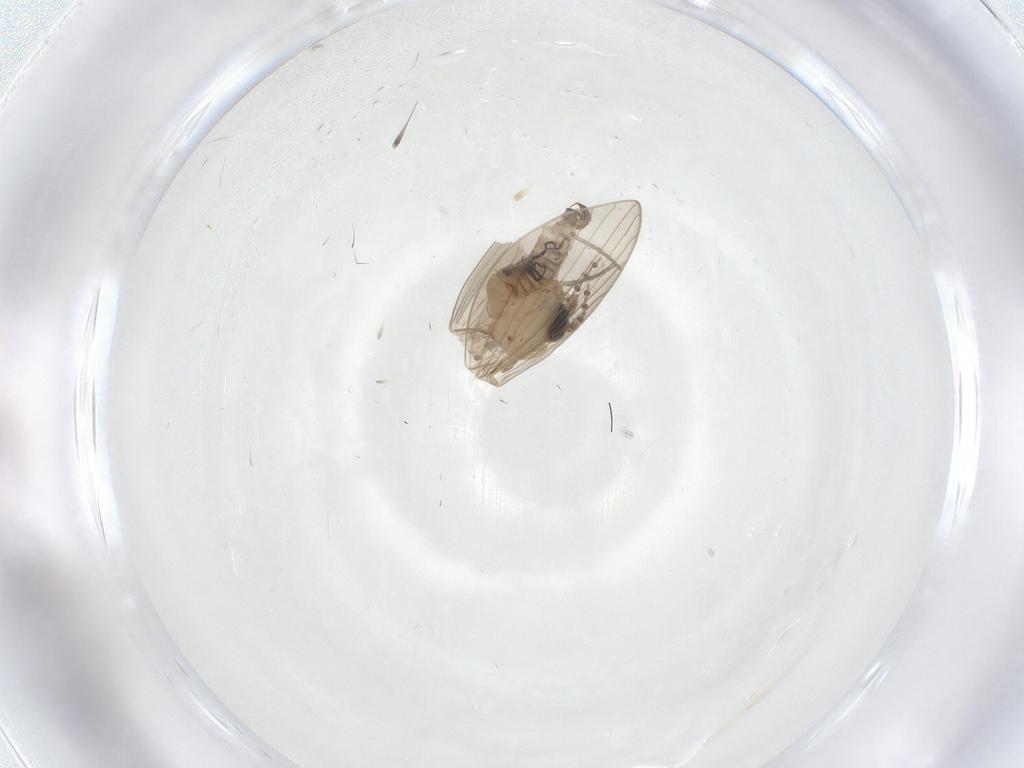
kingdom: Animalia
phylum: Arthropoda
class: Insecta
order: Diptera
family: Psychodidae
